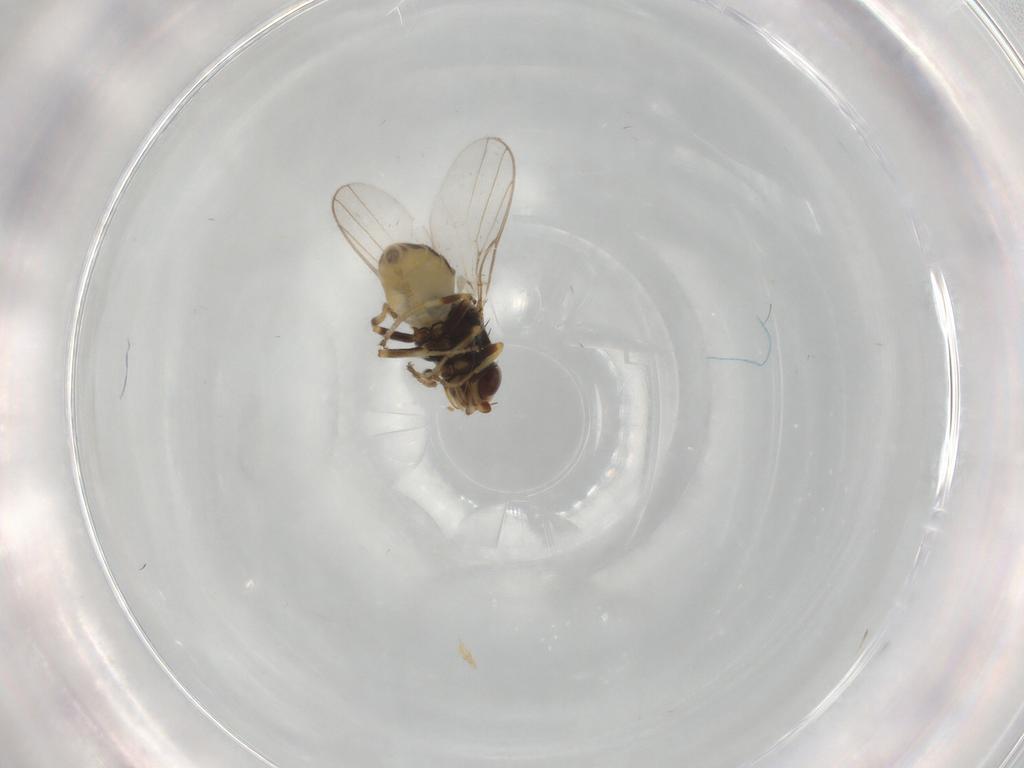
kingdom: Animalia
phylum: Arthropoda
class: Insecta
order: Diptera
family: Chloropidae
